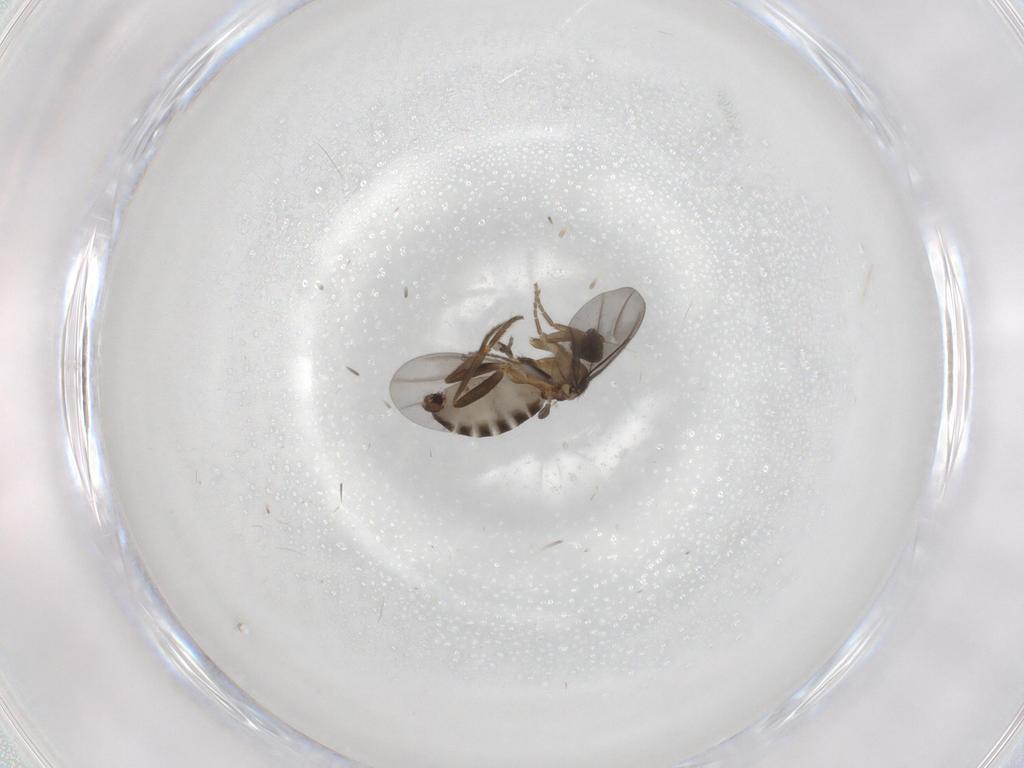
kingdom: Animalia
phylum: Arthropoda
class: Insecta
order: Diptera
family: Phoridae
